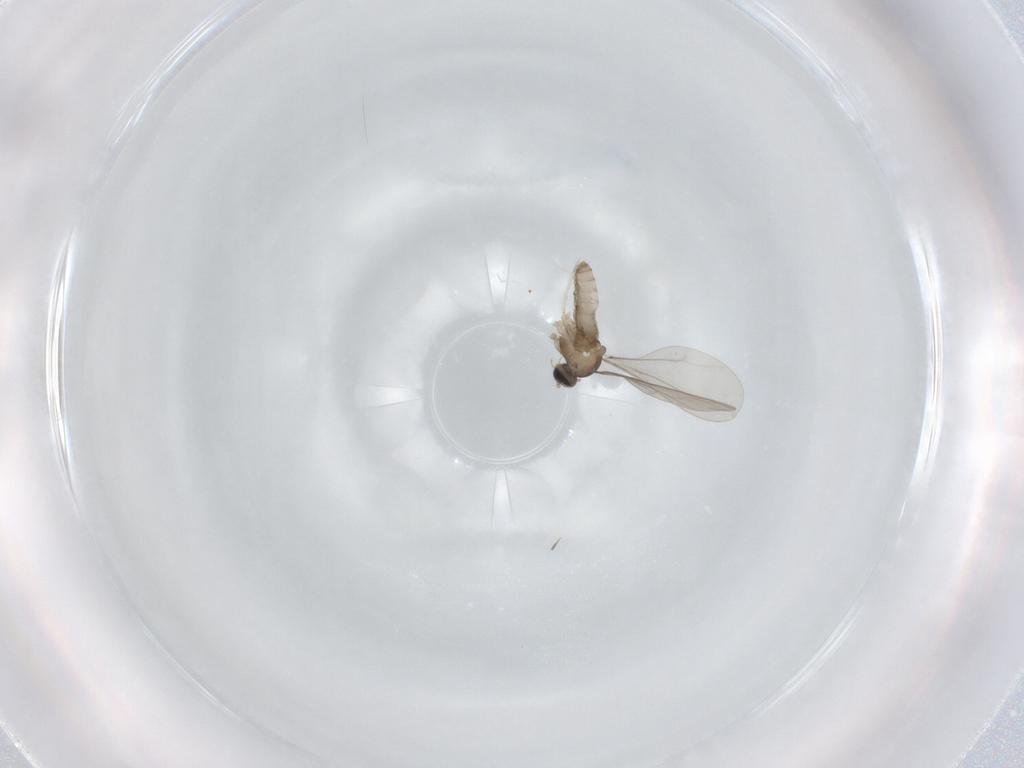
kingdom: Animalia
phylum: Arthropoda
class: Insecta
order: Diptera
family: Cecidomyiidae
